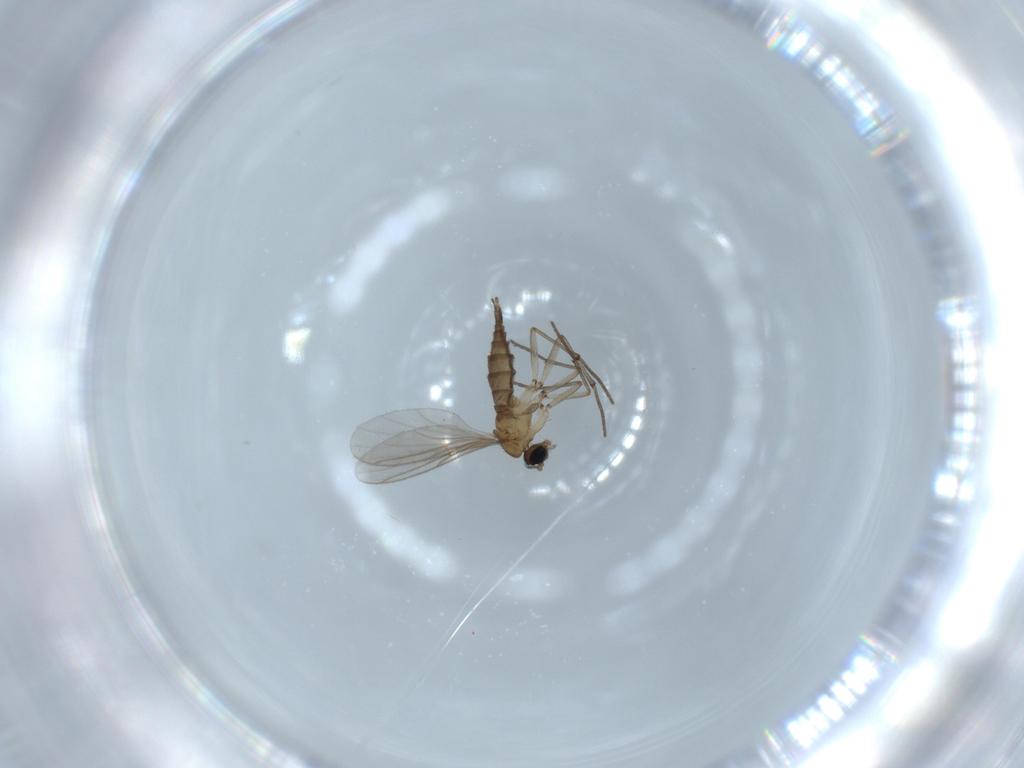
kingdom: Animalia
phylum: Arthropoda
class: Insecta
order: Diptera
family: Sciaridae
